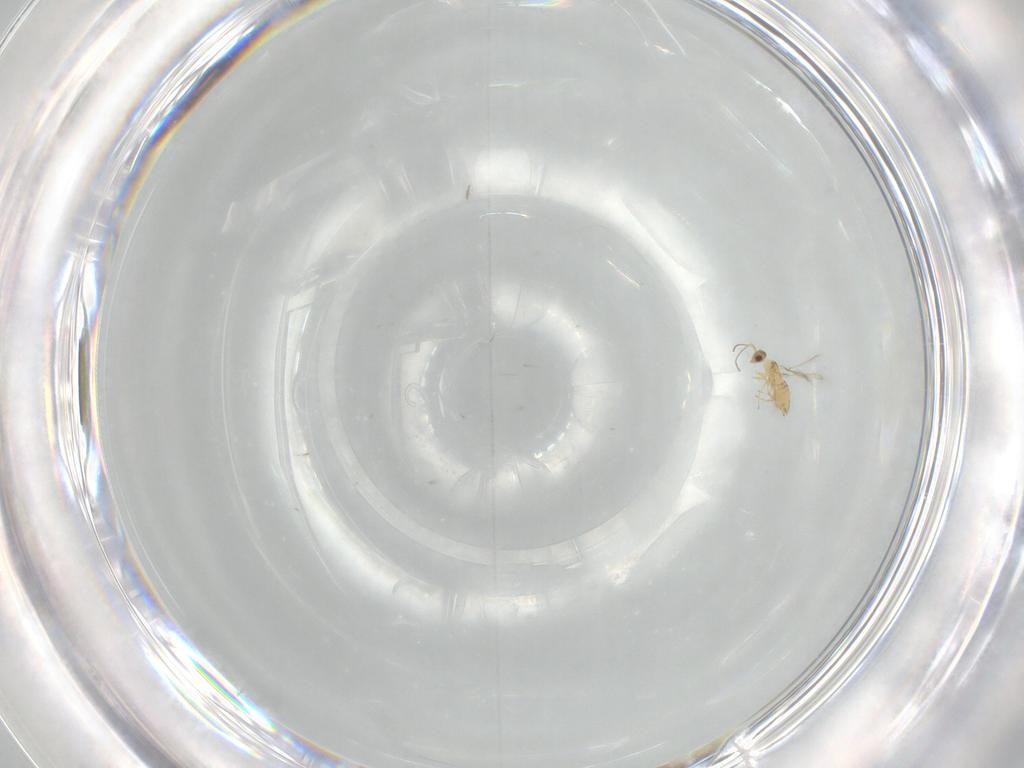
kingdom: Animalia
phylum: Arthropoda
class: Insecta
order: Hymenoptera
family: Mymaridae
